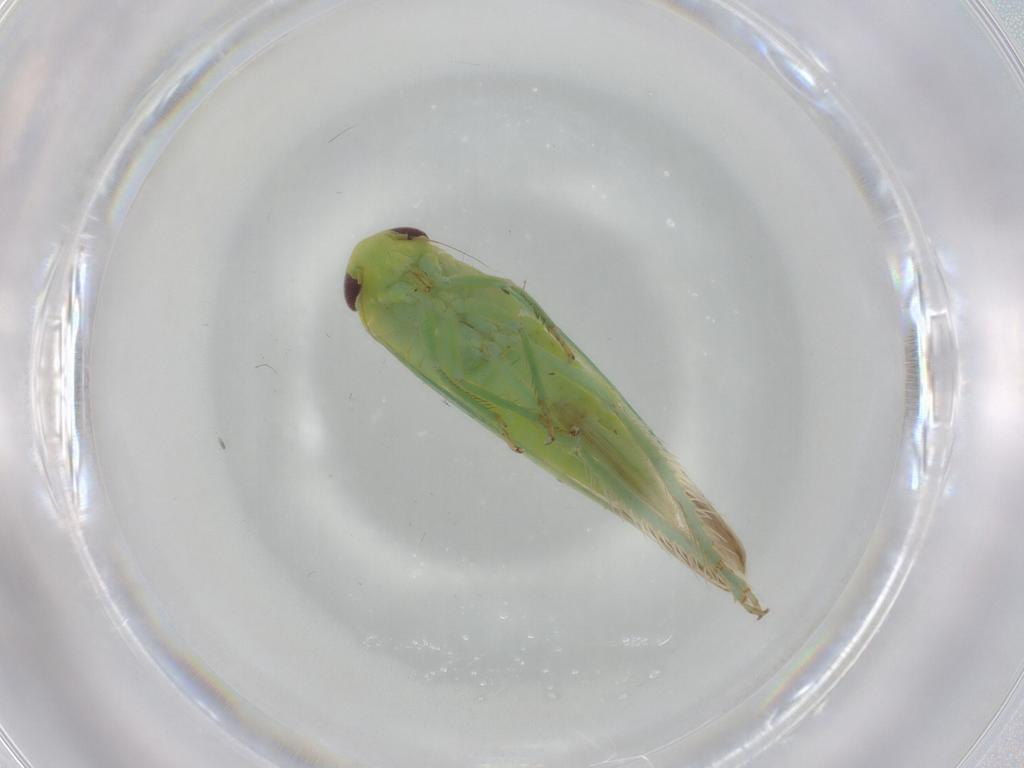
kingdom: Animalia
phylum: Arthropoda
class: Insecta
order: Hemiptera
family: Cicadellidae
